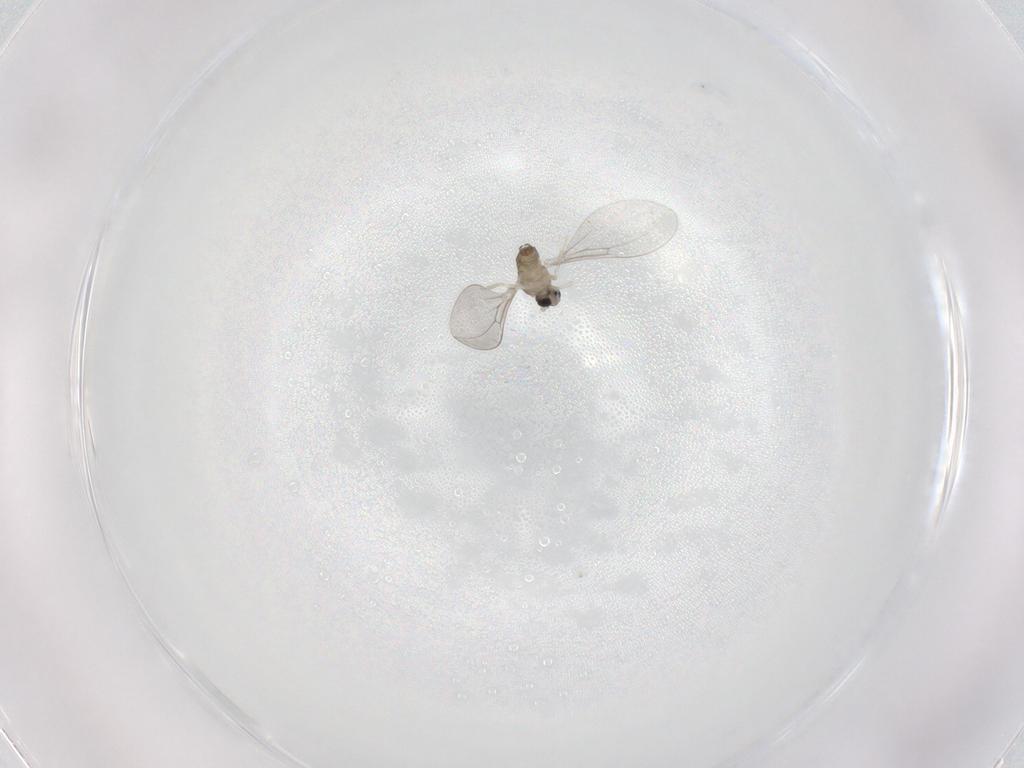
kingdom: Animalia
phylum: Arthropoda
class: Insecta
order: Diptera
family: Cecidomyiidae
